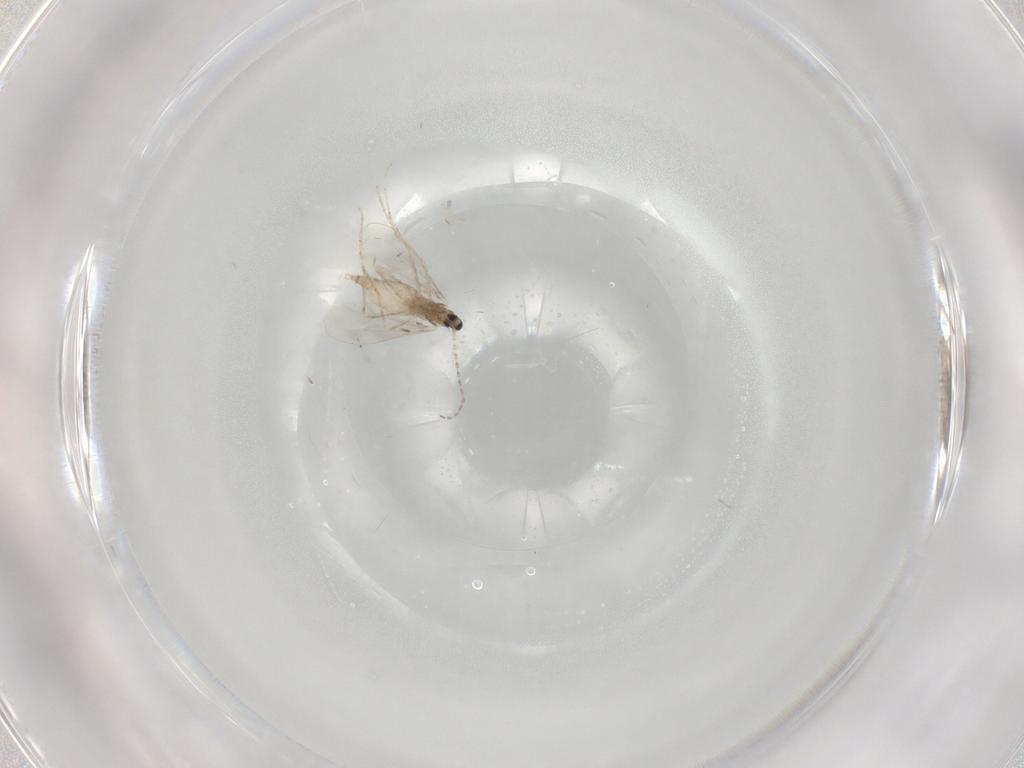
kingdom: Animalia
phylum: Arthropoda
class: Insecta
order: Diptera
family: Cecidomyiidae
